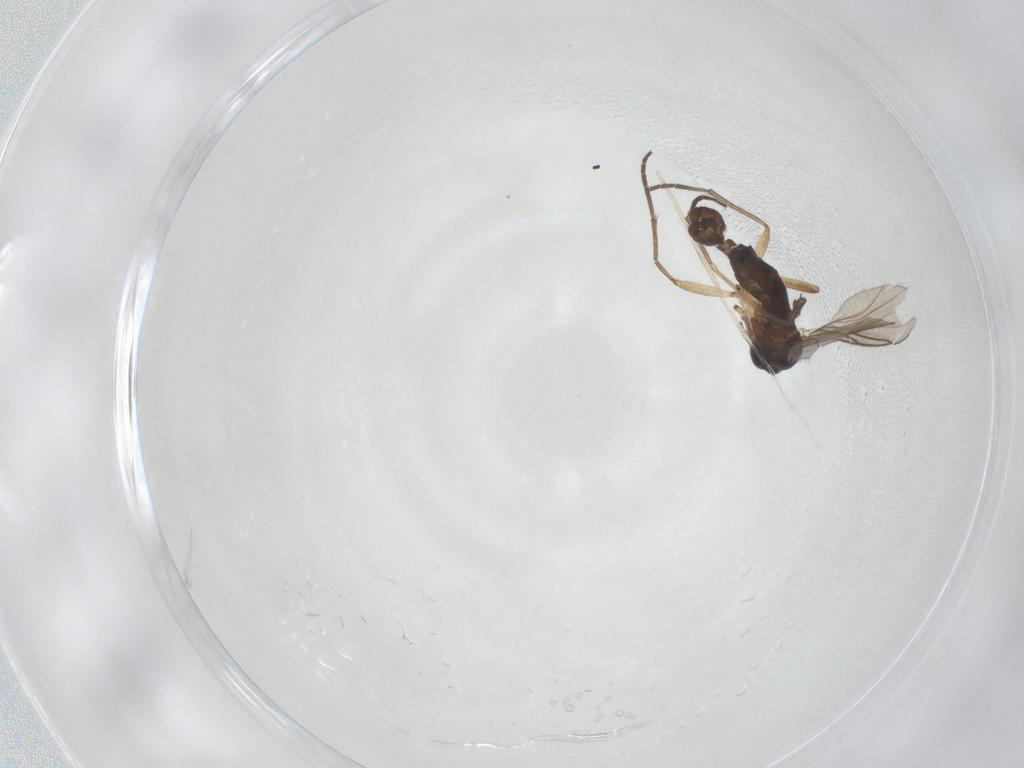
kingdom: Animalia
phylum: Arthropoda
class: Insecta
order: Diptera
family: Sciaridae
